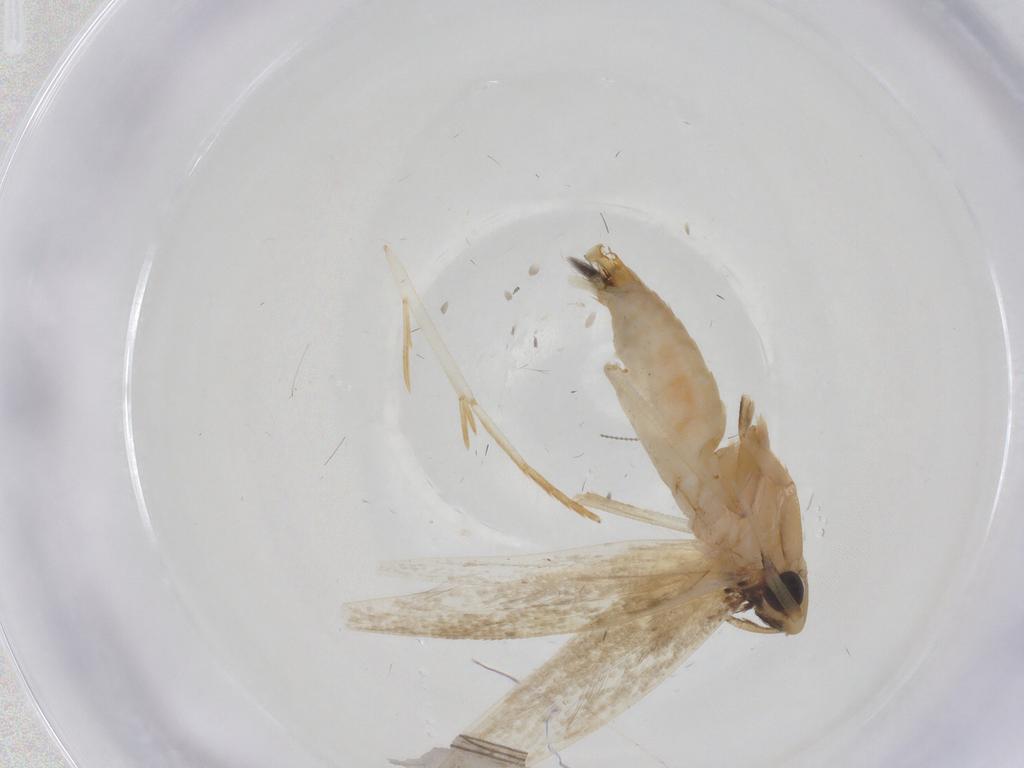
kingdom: Animalia
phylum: Arthropoda
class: Insecta
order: Lepidoptera
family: Tineidae
